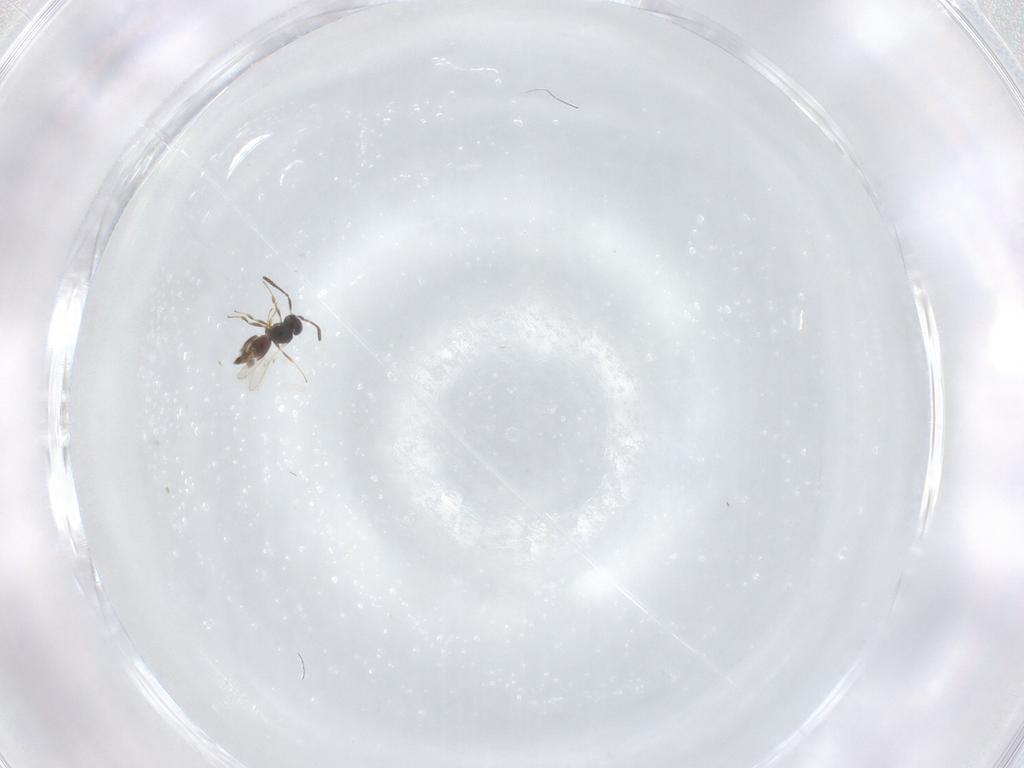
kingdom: Animalia
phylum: Arthropoda
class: Insecta
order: Hymenoptera
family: Scelionidae
